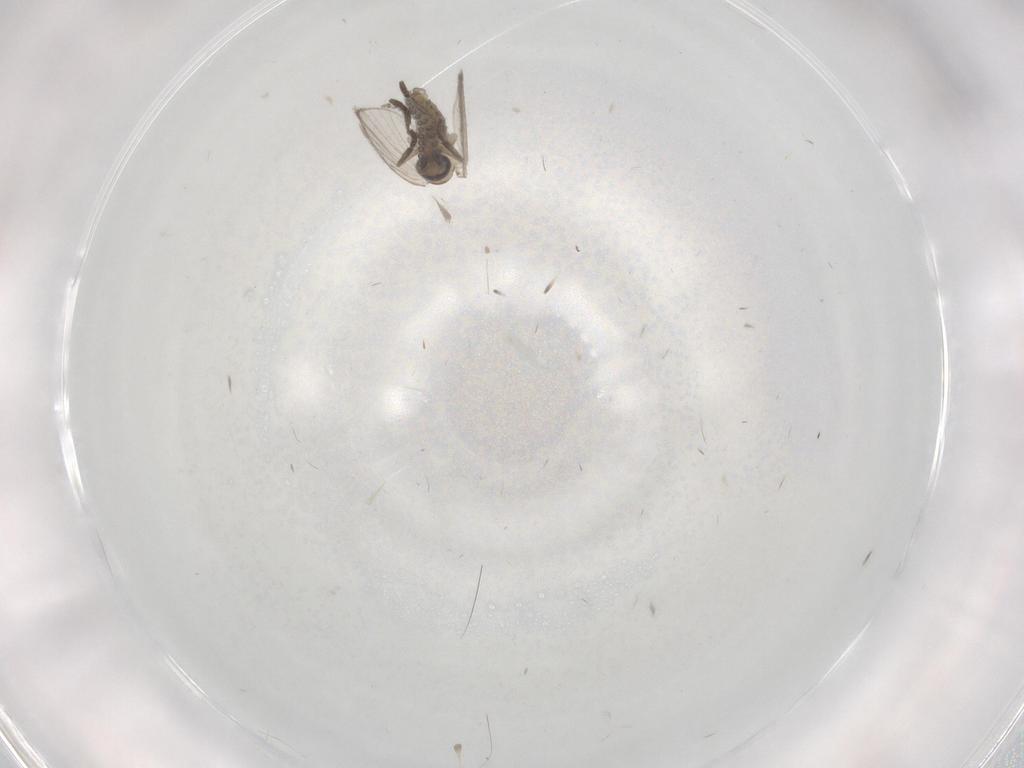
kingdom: Animalia
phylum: Arthropoda
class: Insecta
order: Diptera
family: Psychodidae
